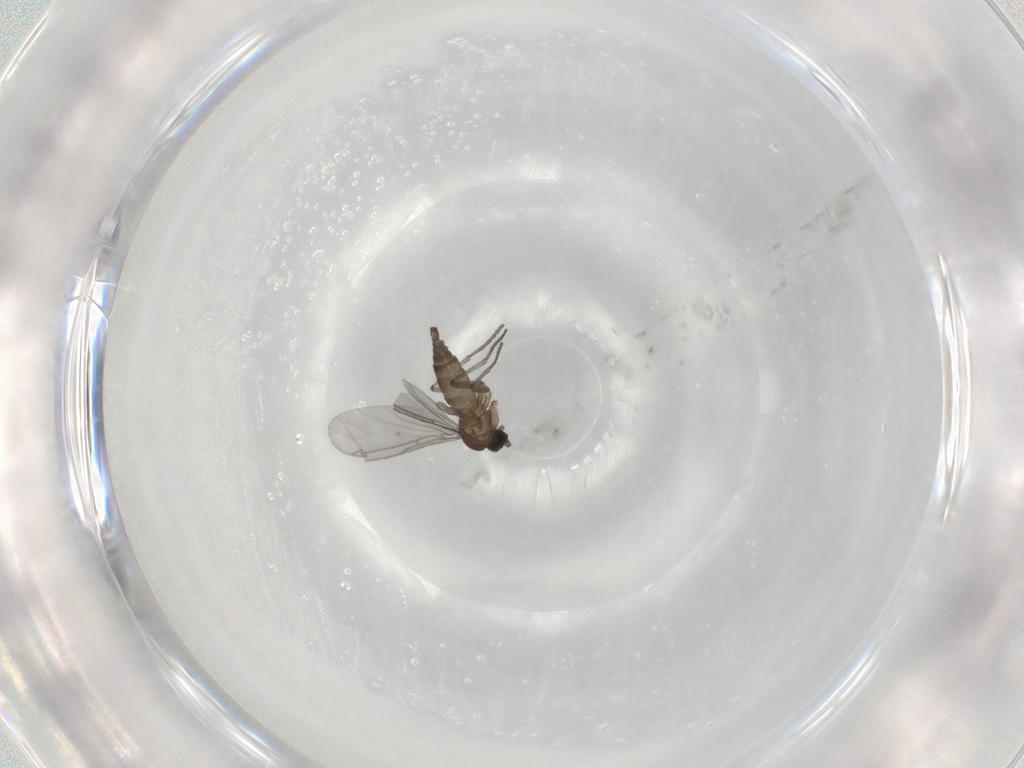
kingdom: Animalia
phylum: Arthropoda
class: Insecta
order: Diptera
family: Sciaridae
